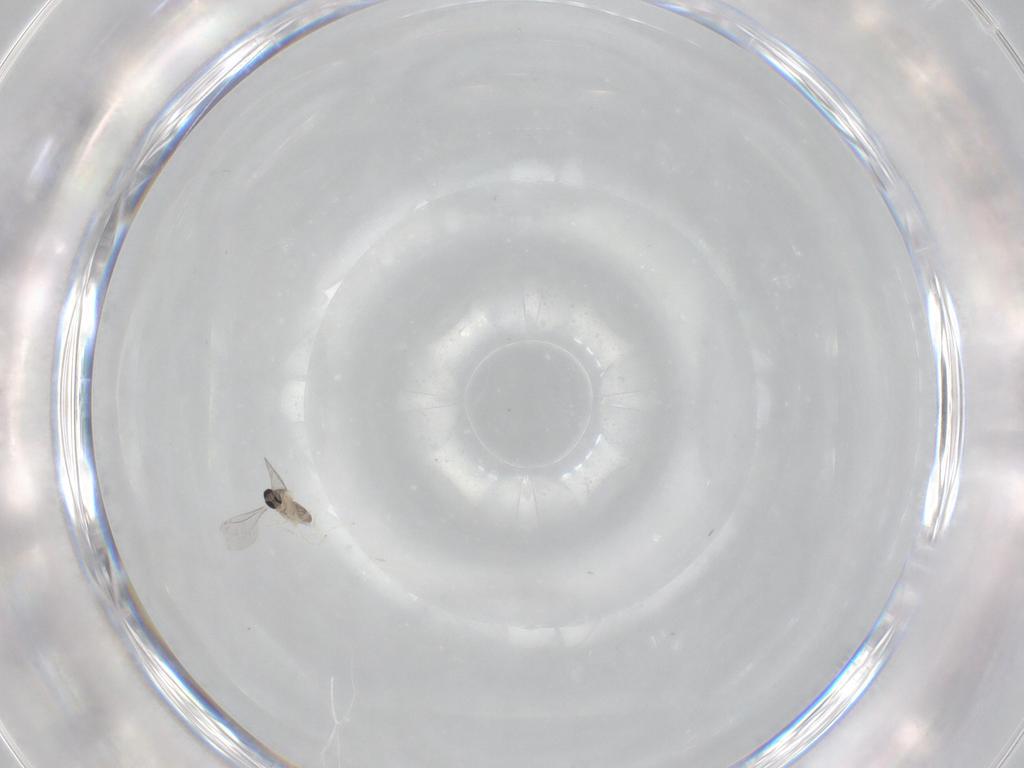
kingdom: Animalia
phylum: Arthropoda
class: Insecta
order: Diptera
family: Cecidomyiidae
